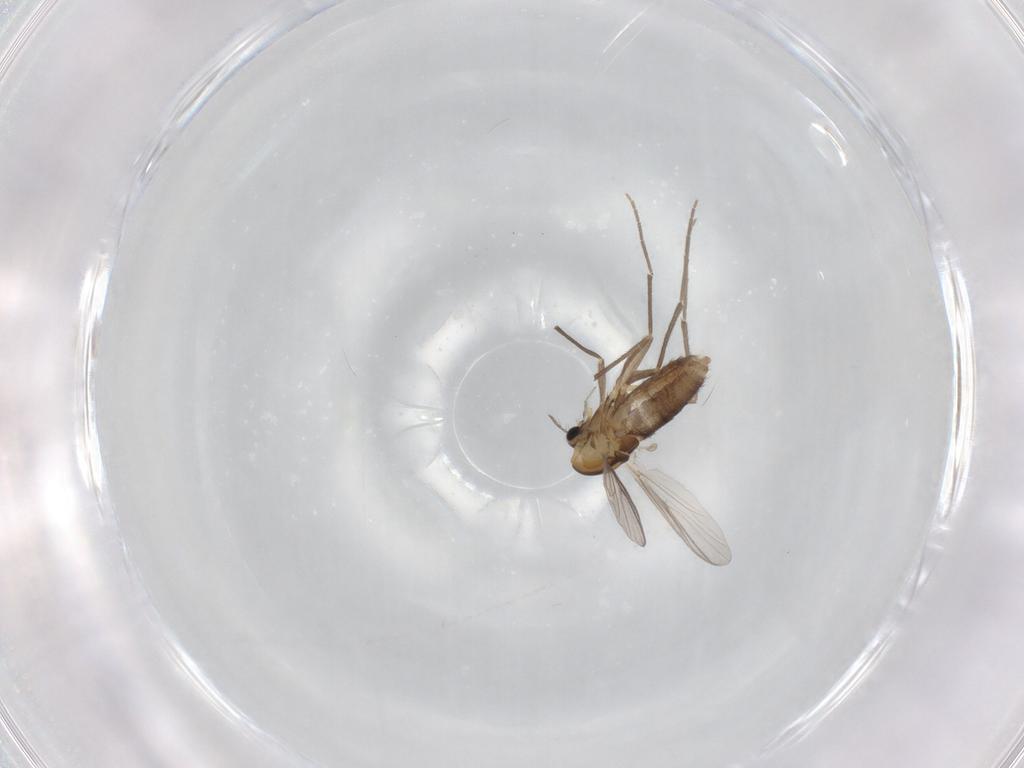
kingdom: Animalia
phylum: Arthropoda
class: Insecta
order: Diptera
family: Chironomidae
